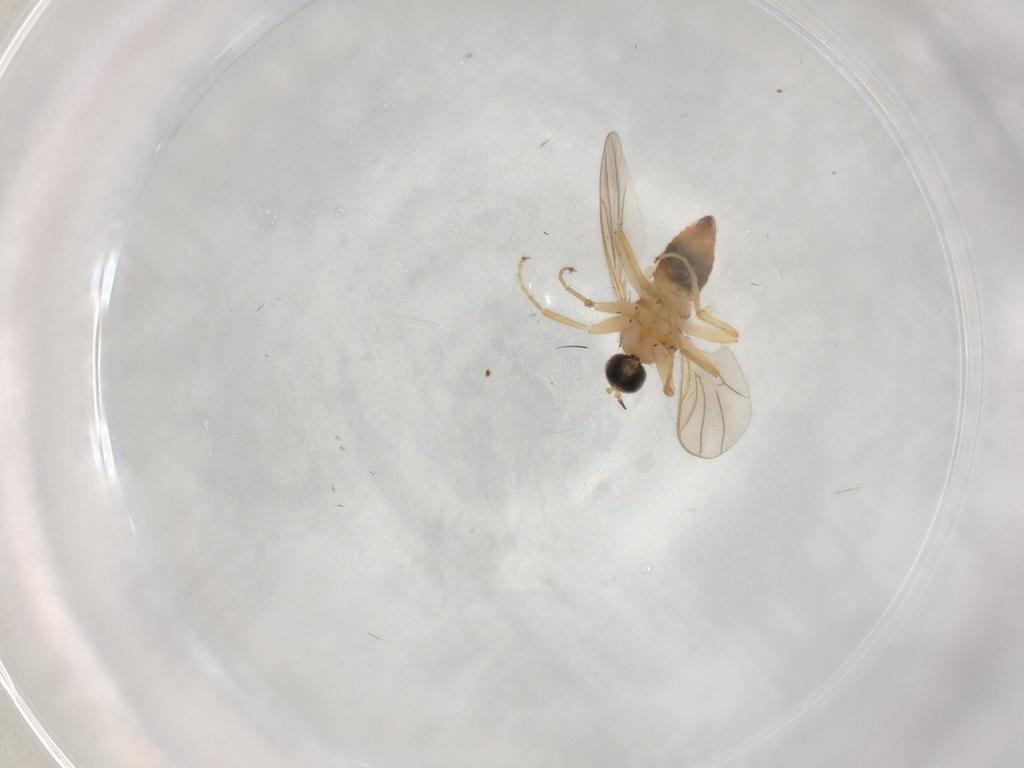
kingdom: Animalia
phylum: Arthropoda
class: Insecta
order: Diptera
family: Hybotidae
